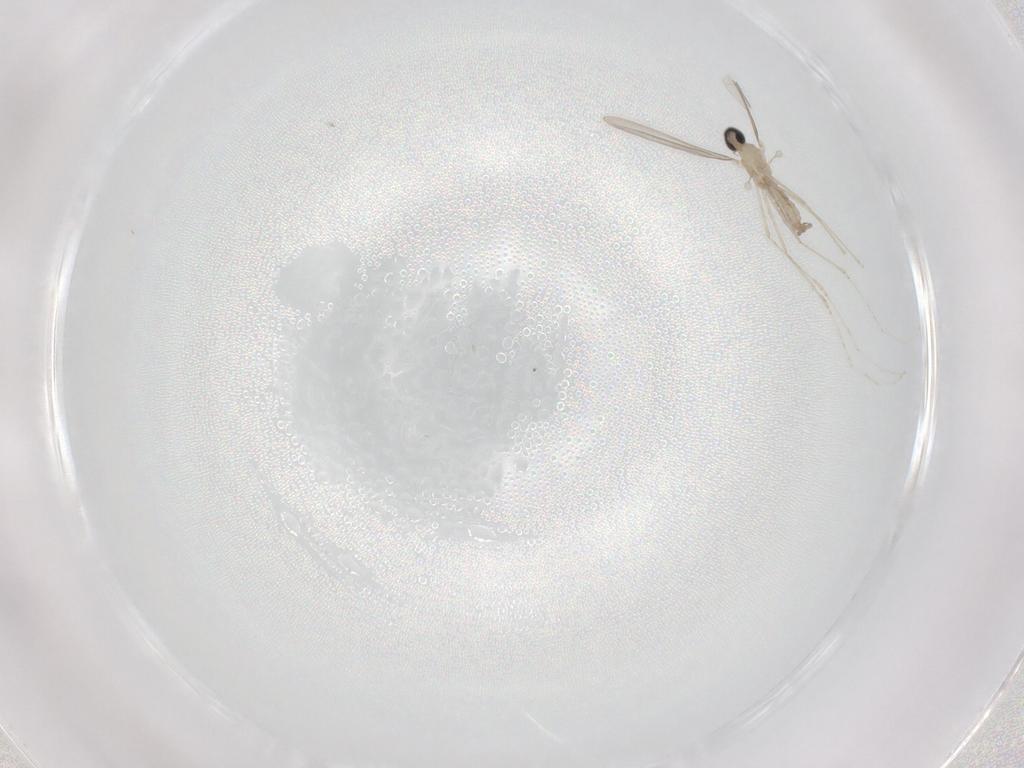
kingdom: Animalia
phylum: Arthropoda
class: Insecta
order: Diptera
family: Cecidomyiidae
